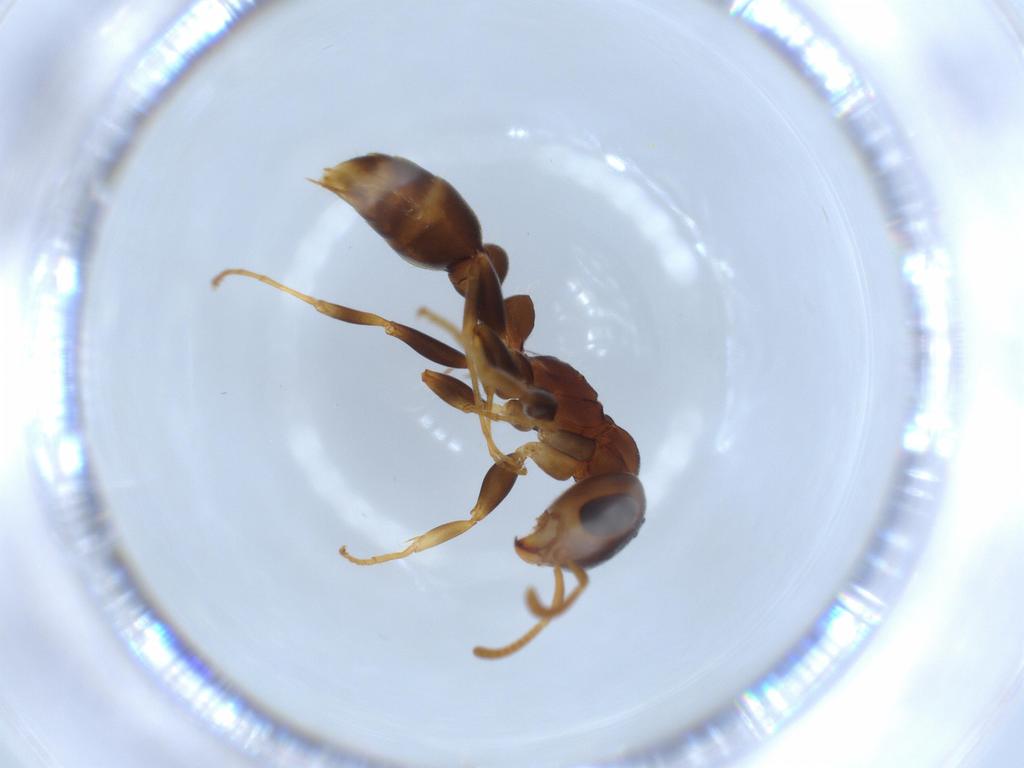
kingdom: Animalia
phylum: Arthropoda
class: Insecta
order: Hymenoptera
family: Formicidae
